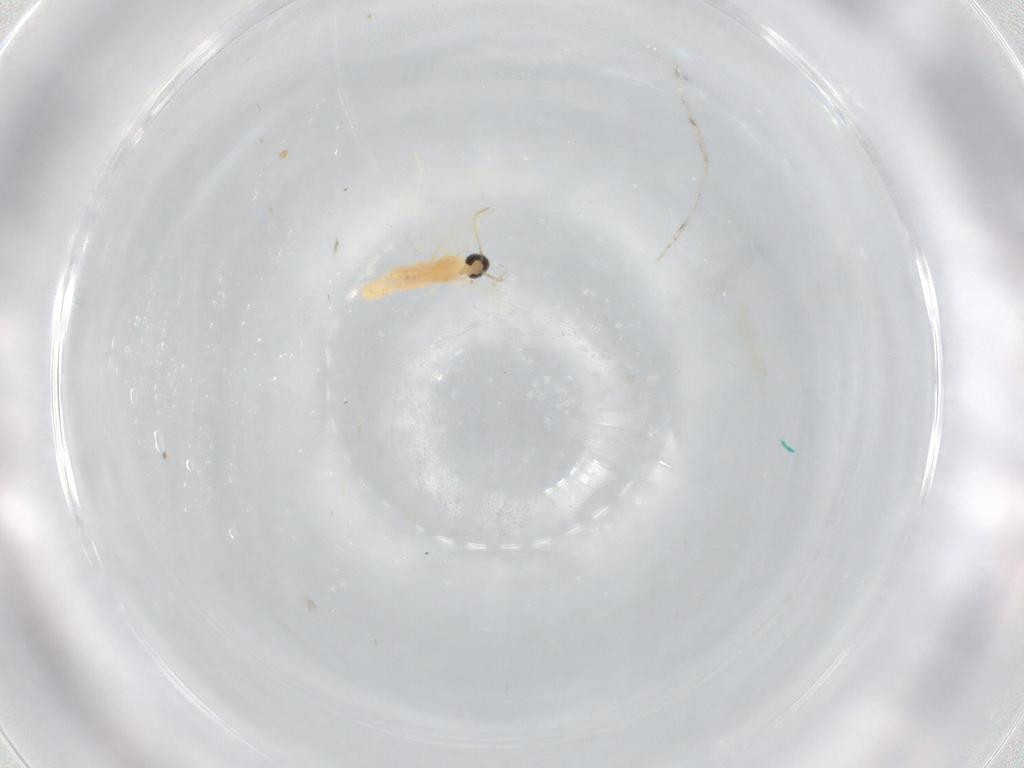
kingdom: Animalia
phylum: Arthropoda
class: Insecta
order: Diptera
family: Cecidomyiidae
